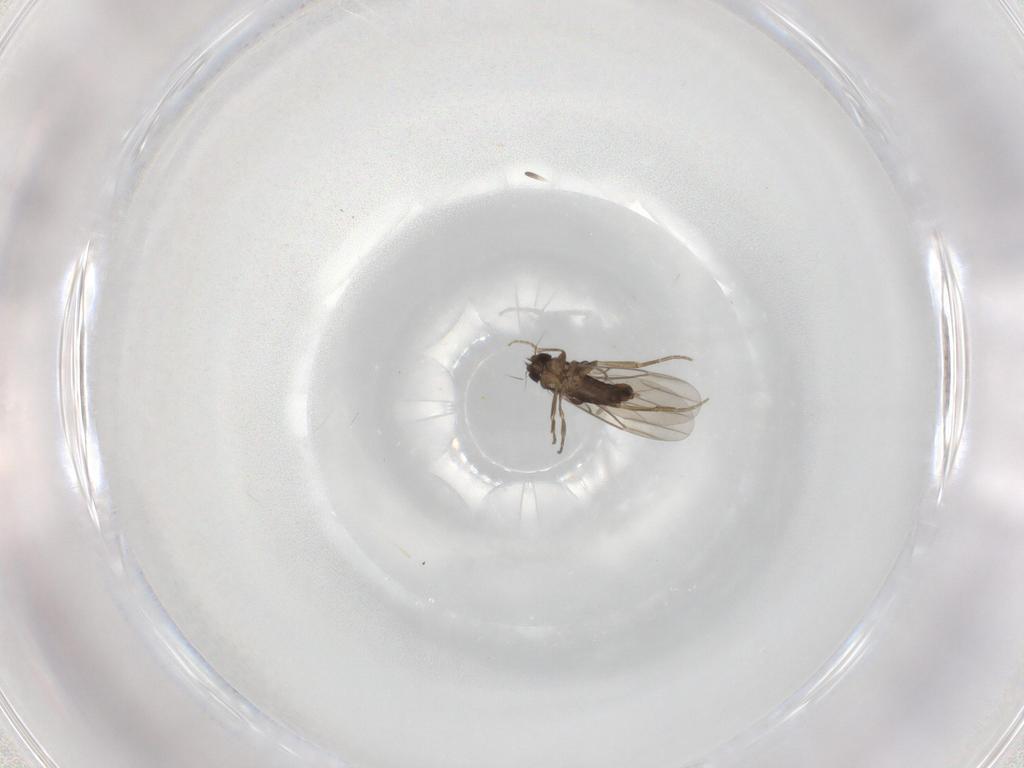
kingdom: Animalia
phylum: Arthropoda
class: Insecta
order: Diptera
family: Phoridae
